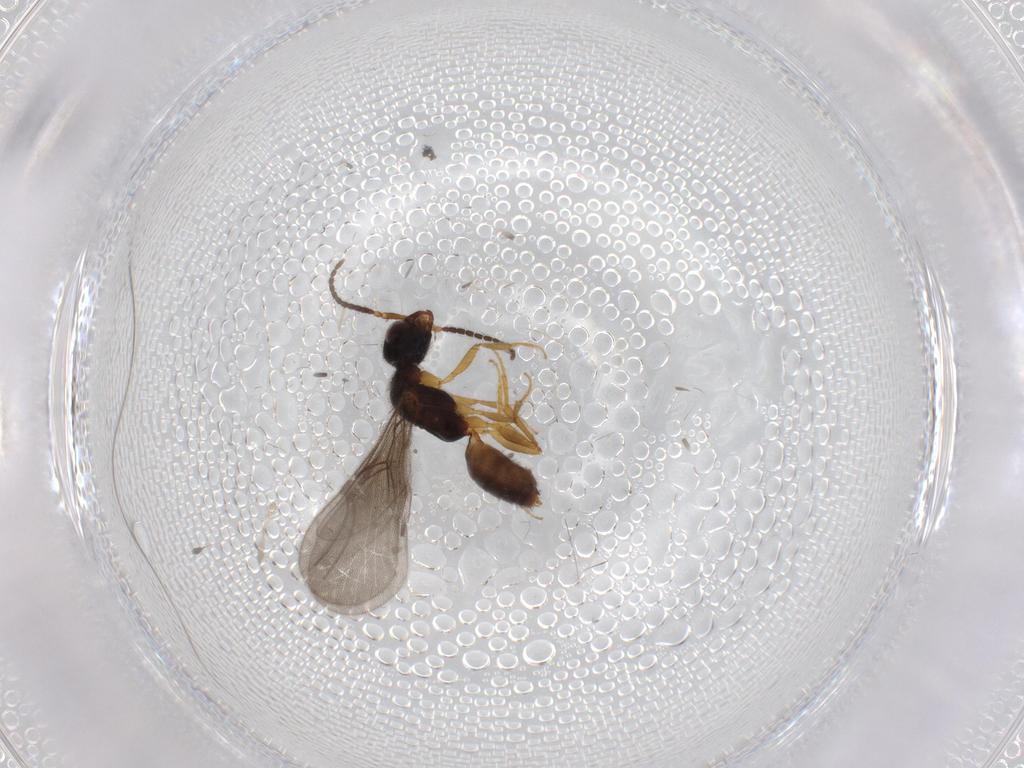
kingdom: Animalia
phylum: Arthropoda
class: Insecta
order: Hymenoptera
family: Bethylidae
